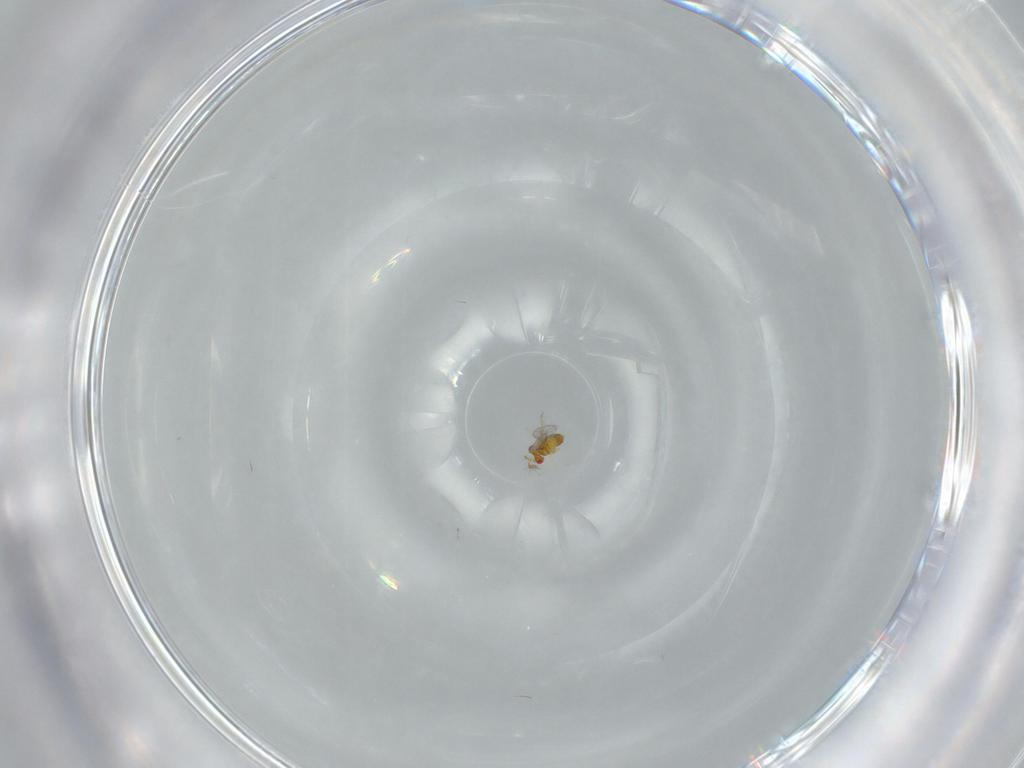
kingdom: Animalia
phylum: Arthropoda
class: Insecta
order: Hymenoptera
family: Trichogrammatidae
